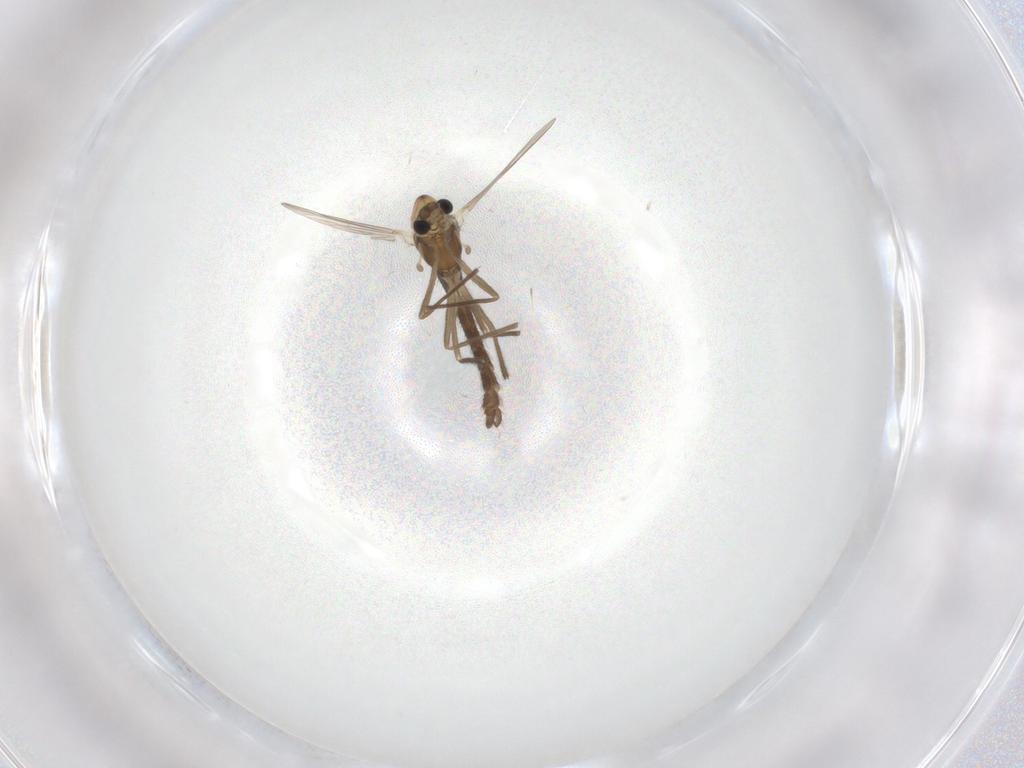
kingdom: Animalia
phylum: Arthropoda
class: Insecta
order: Diptera
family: Chironomidae
